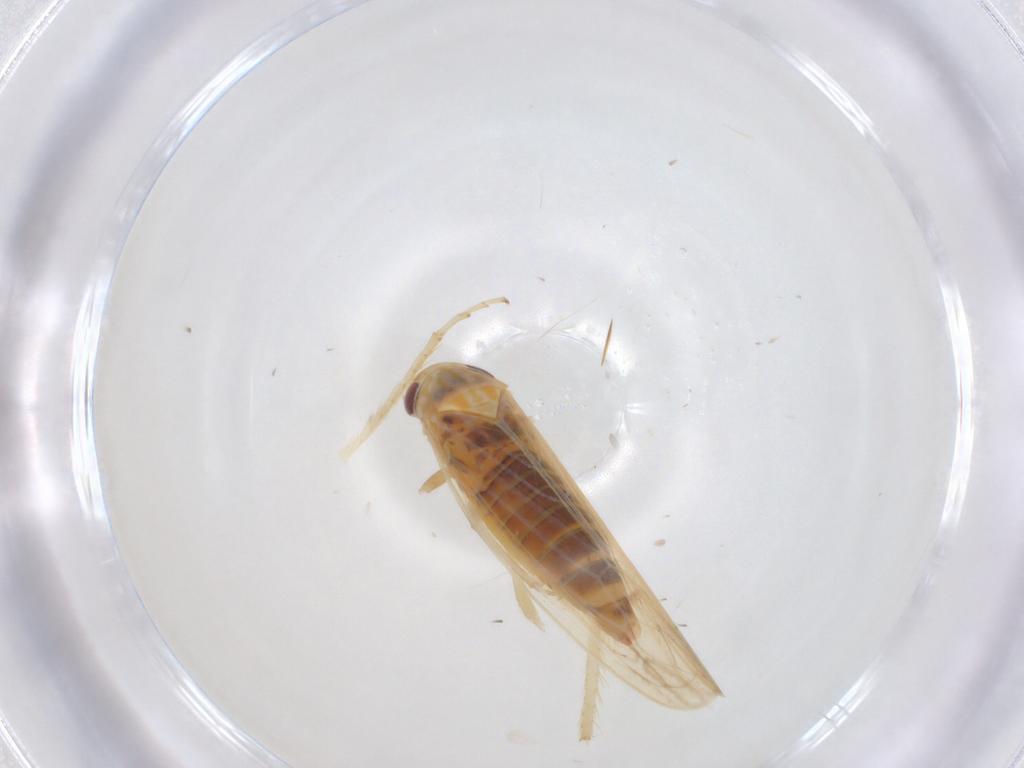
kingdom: Animalia
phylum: Arthropoda
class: Insecta
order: Hemiptera
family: Cicadellidae
